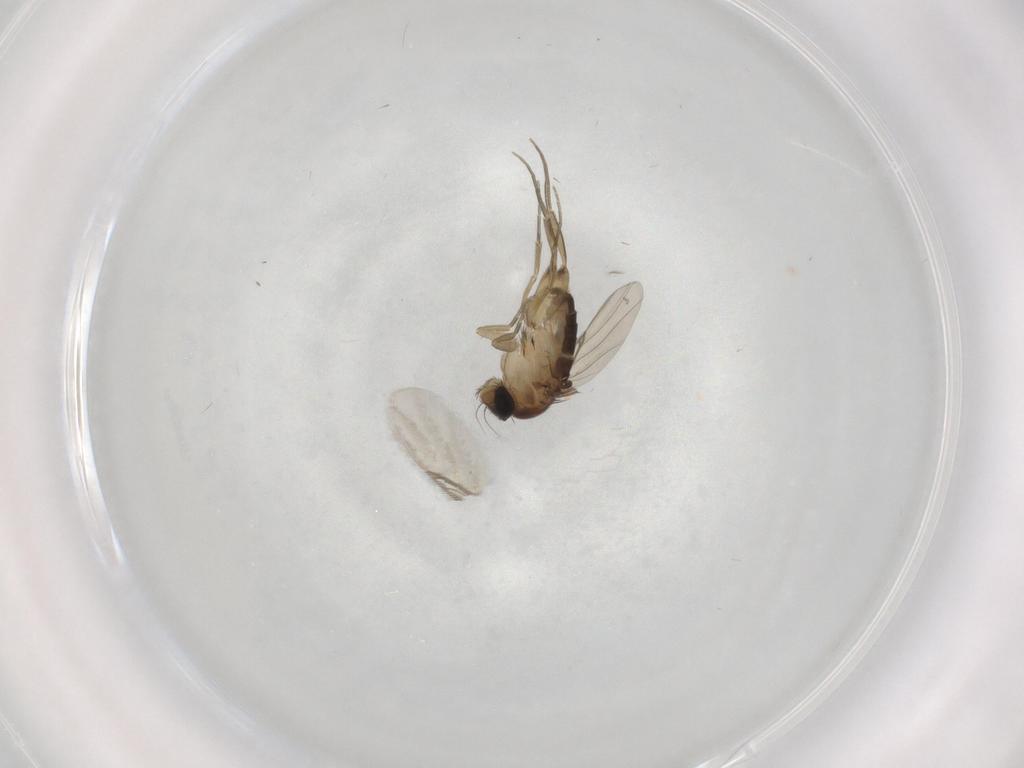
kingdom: Animalia
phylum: Arthropoda
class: Insecta
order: Diptera
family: Phoridae
